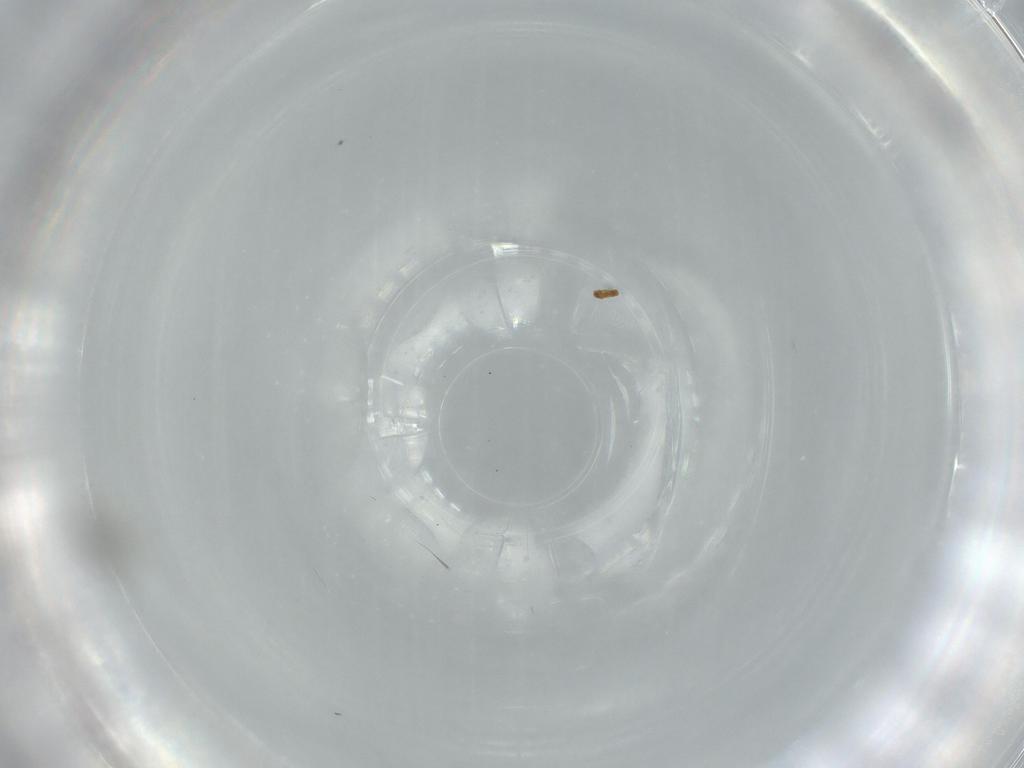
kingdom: Animalia
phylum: Arthropoda
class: Insecta
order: Hymenoptera
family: Scelionidae
